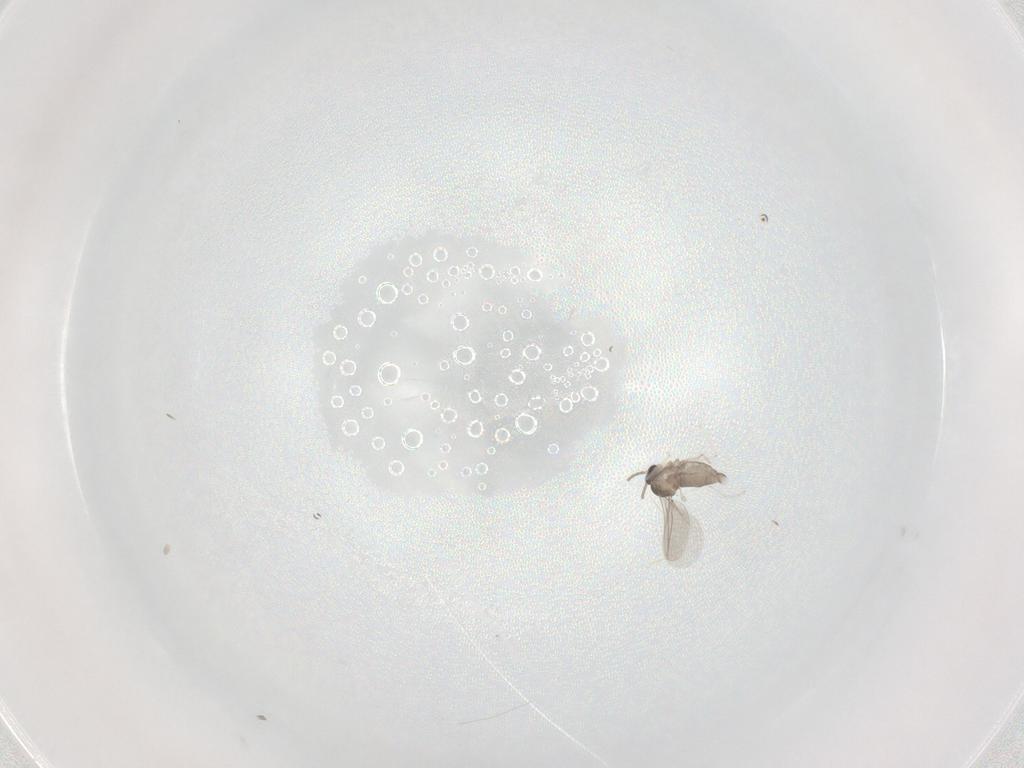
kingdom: Animalia
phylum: Arthropoda
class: Insecta
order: Diptera
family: Cecidomyiidae
